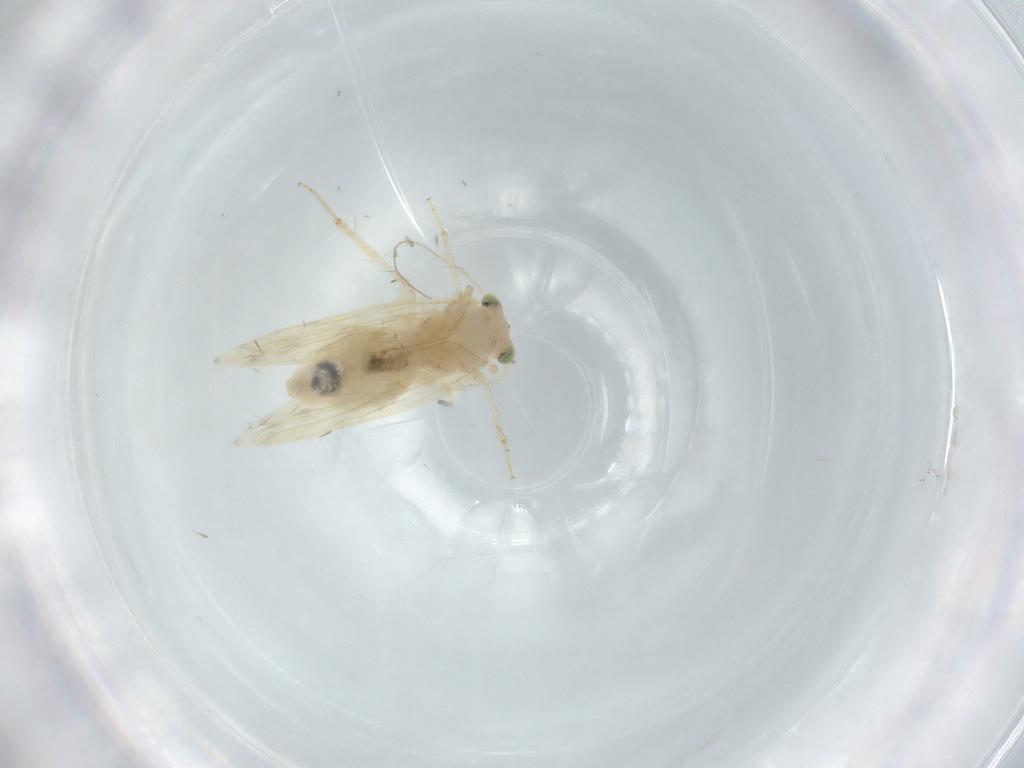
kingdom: Animalia
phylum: Arthropoda
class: Insecta
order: Psocodea
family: Lepidopsocidae
